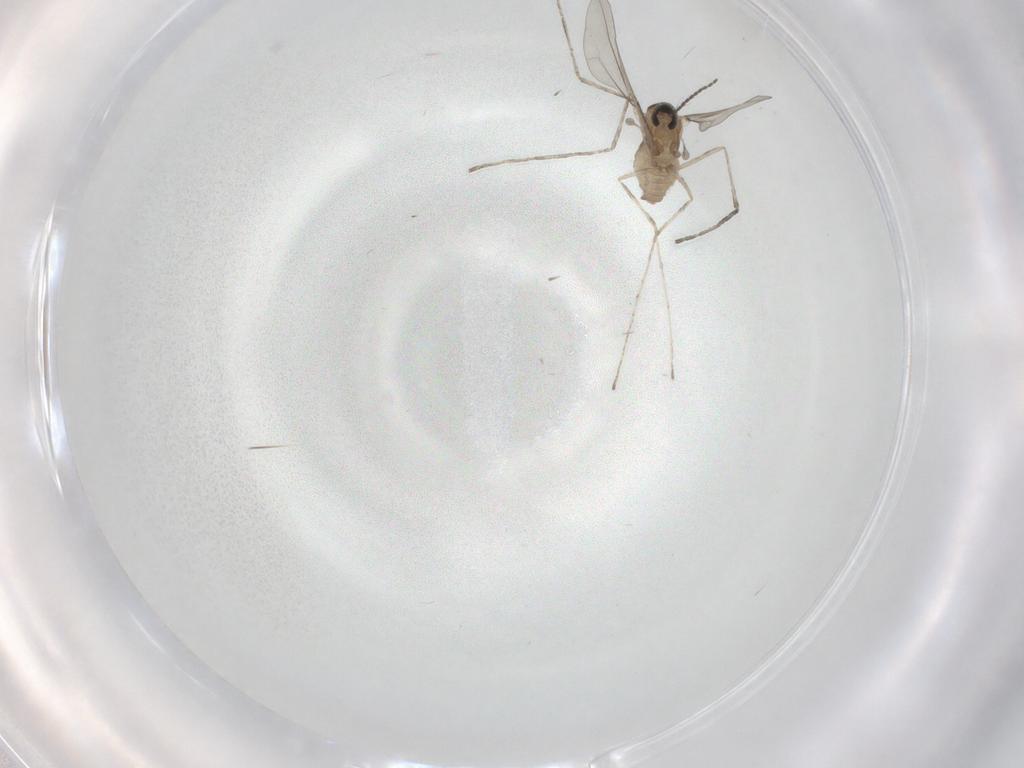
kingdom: Animalia
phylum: Arthropoda
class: Insecta
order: Diptera
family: Cecidomyiidae
